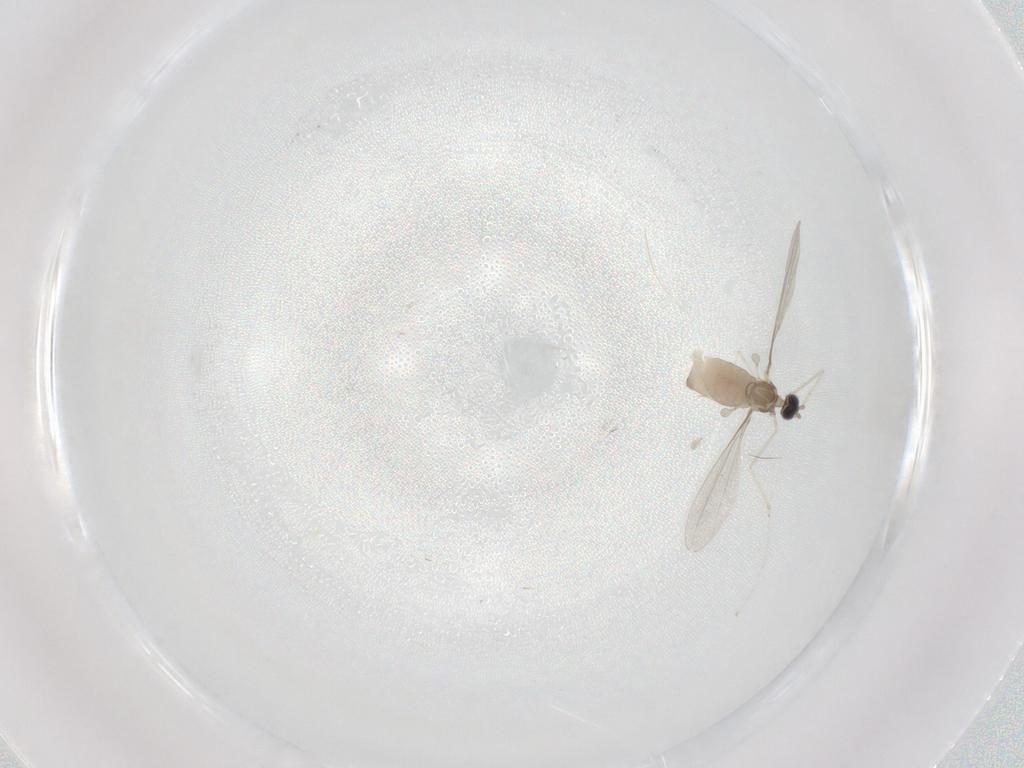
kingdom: Animalia
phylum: Arthropoda
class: Insecta
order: Diptera
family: Cecidomyiidae
